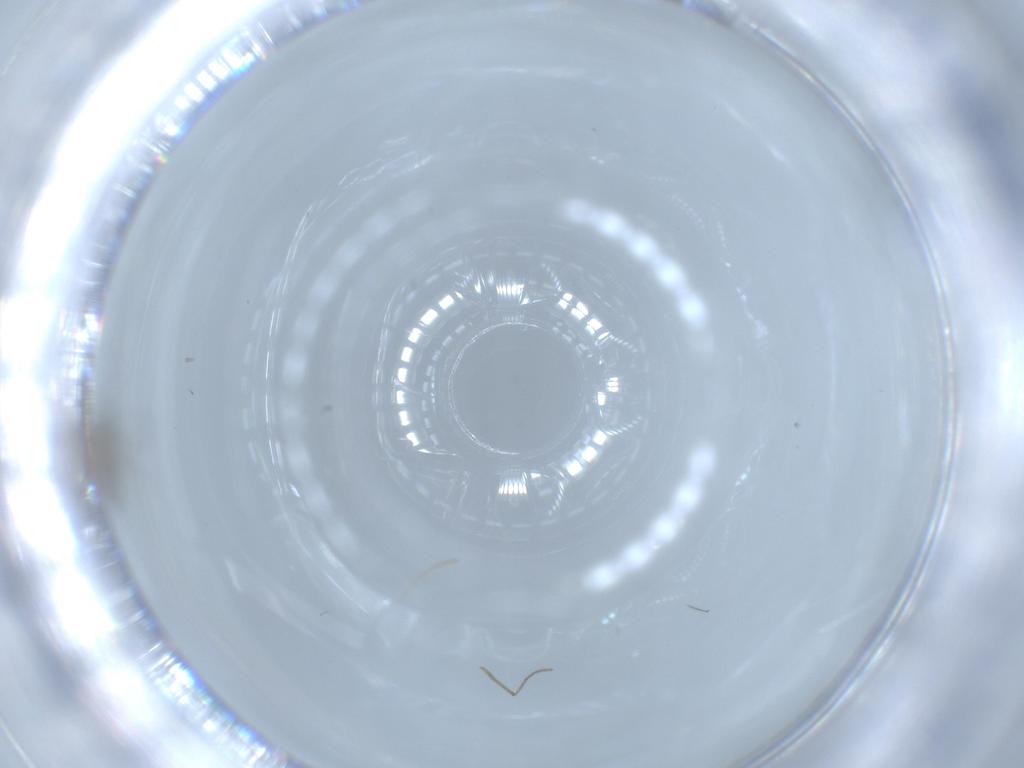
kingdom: Animalia
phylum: Arthropoda
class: Insecta
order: Diptera
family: Chironomidae
